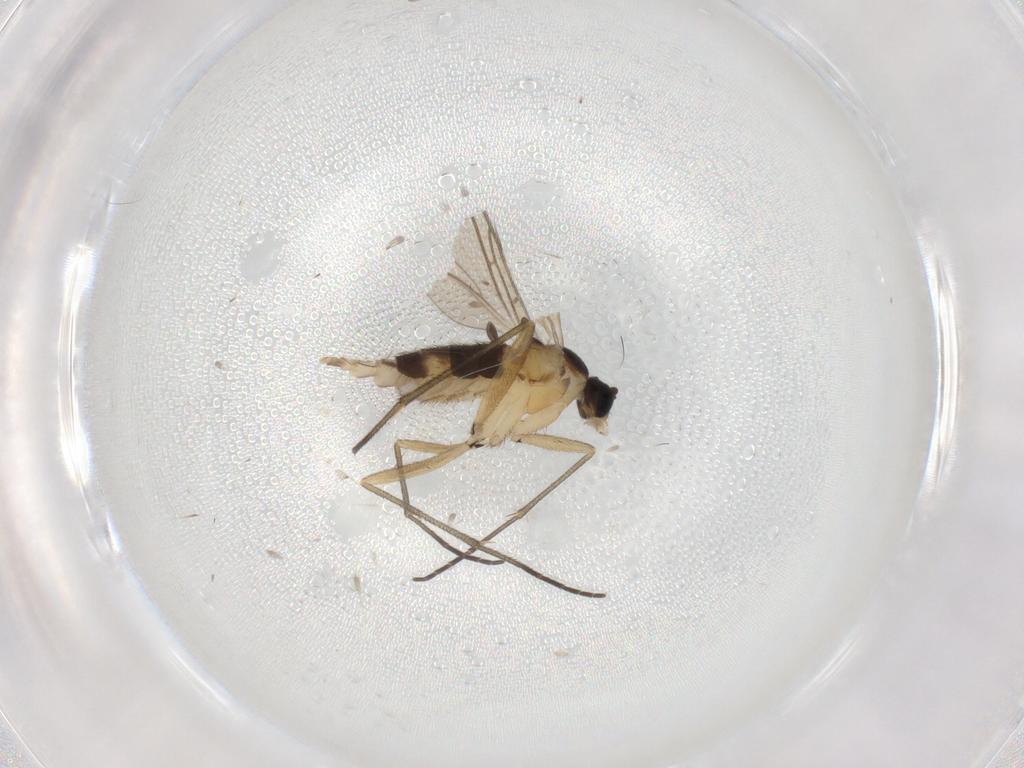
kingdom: Animalia
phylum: Arthropoda
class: Insecta
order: Diptera
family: Sciaridae
